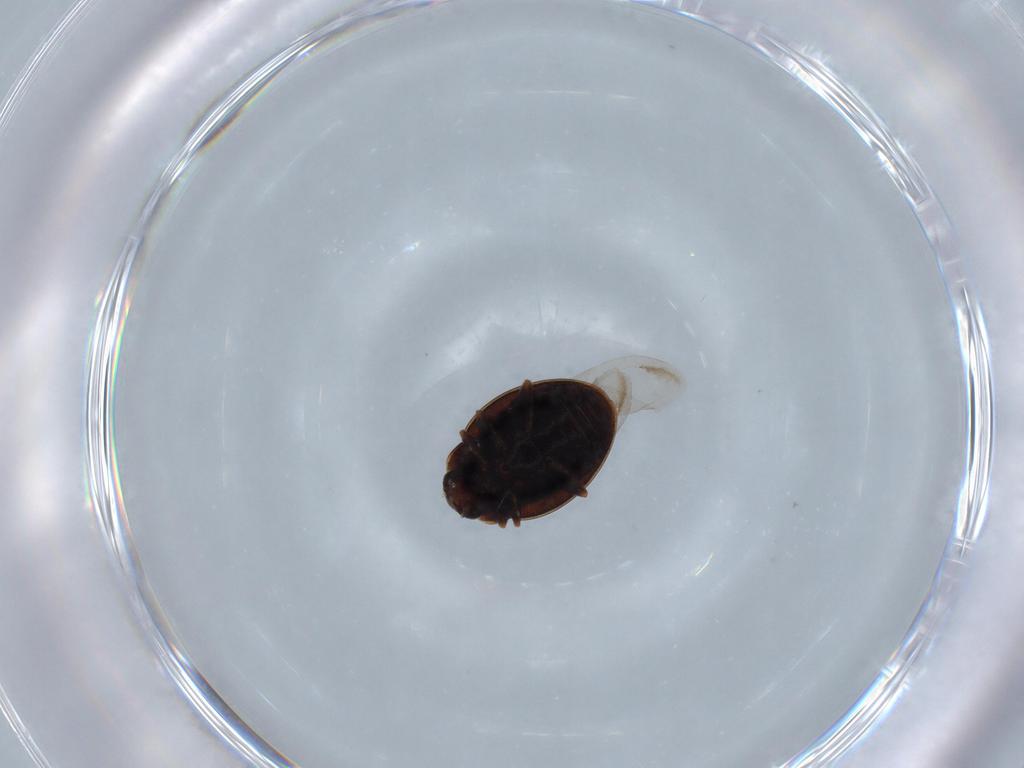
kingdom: Animalia
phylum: Arthropoda
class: Insecta
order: Coleoptera
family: Coccinellidae
